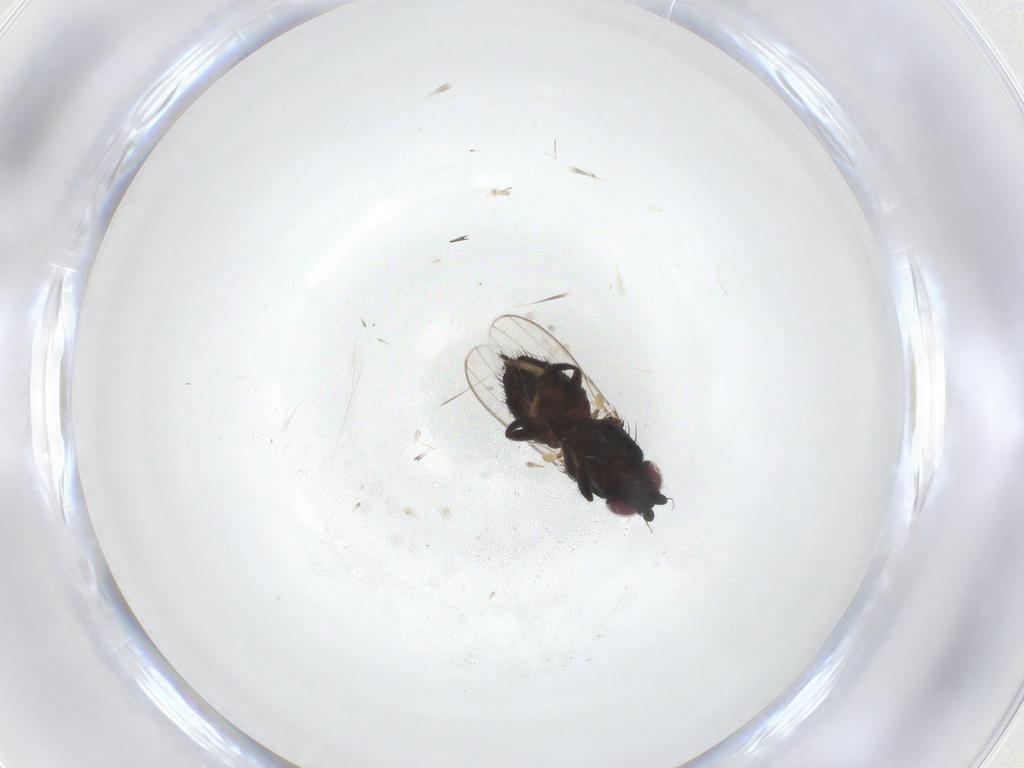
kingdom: Animalia
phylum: Arthropoda
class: Insecta
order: Diptera
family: Milichiidae
